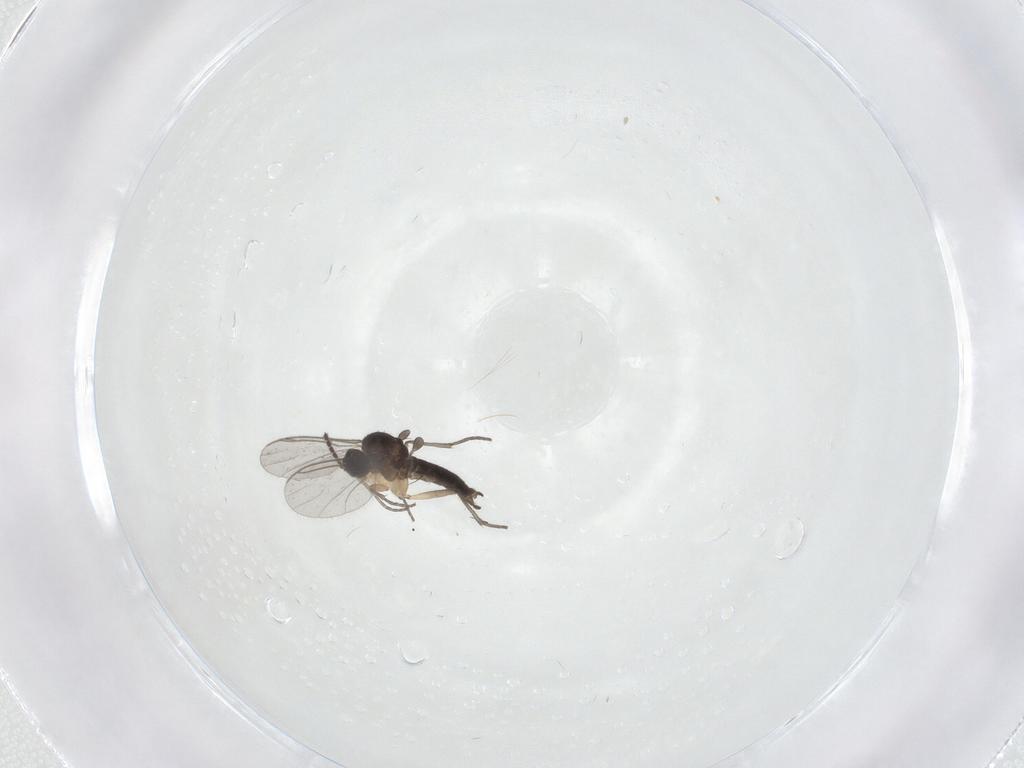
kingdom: Animalia
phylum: Arthropoda
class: Insecta
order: Diptera
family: Sciaridae
